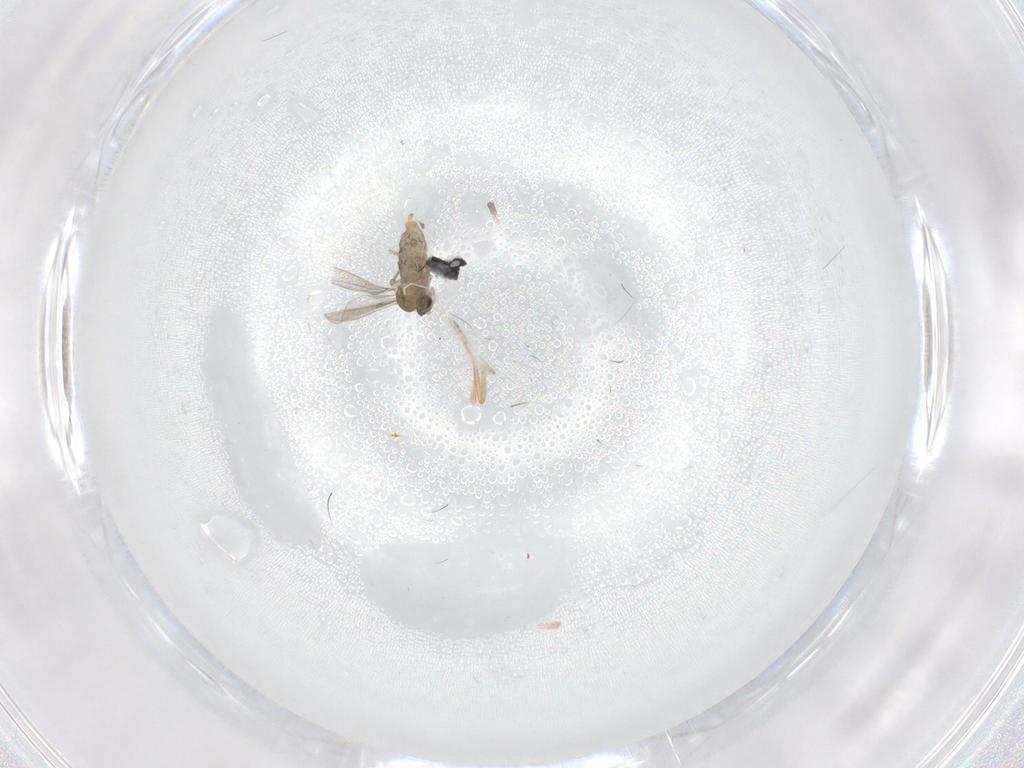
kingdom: Animalia
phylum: Arthropoda
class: Insecta
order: Diptera
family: Cecidomyiidae
